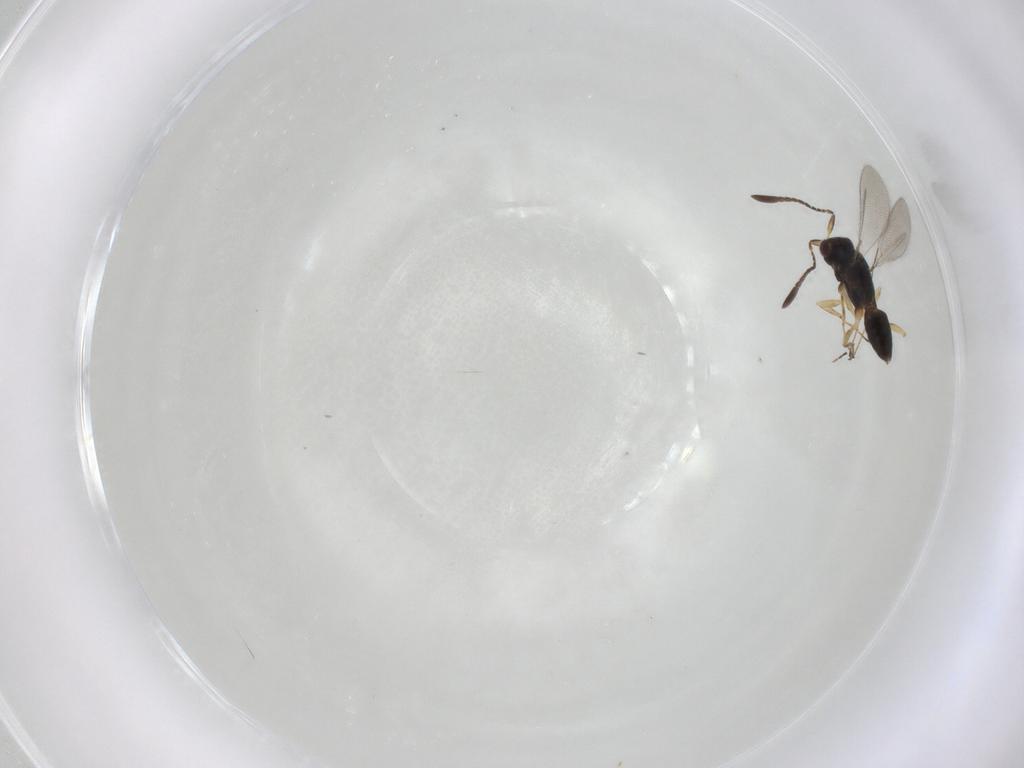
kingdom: Animalia
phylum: Arthropoda
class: Insecta
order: Hymenoptera
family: Mymaridae
